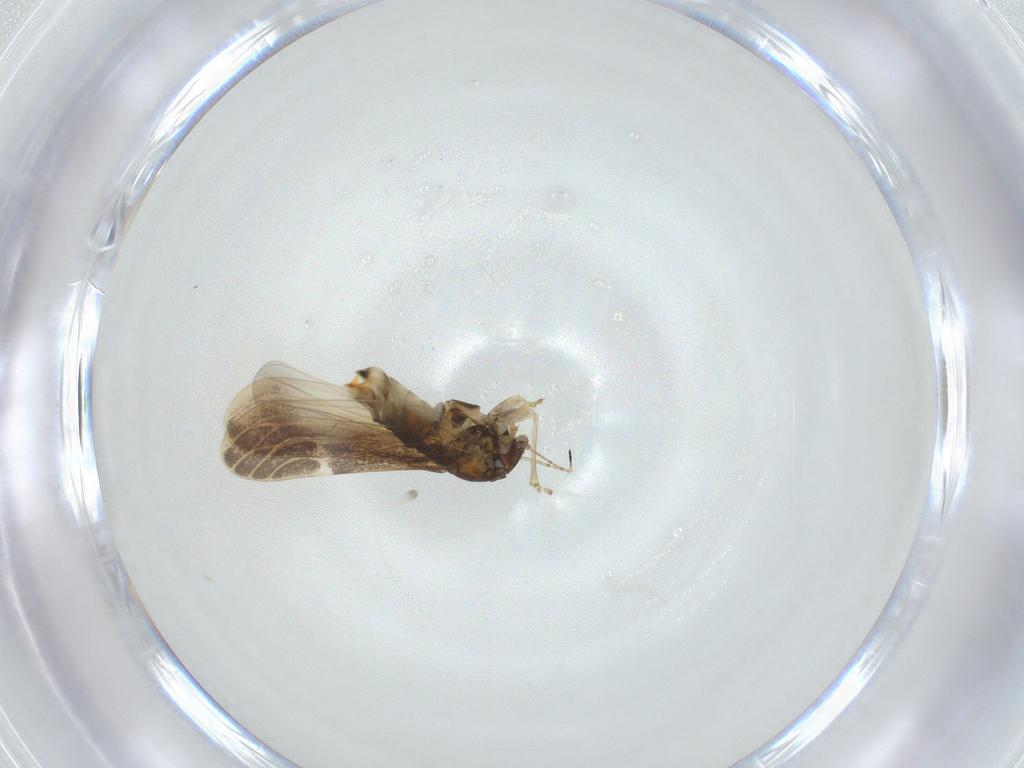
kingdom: Animalia
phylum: Arthropoda
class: Insecta
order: Hemiptera
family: Aphalaridae
